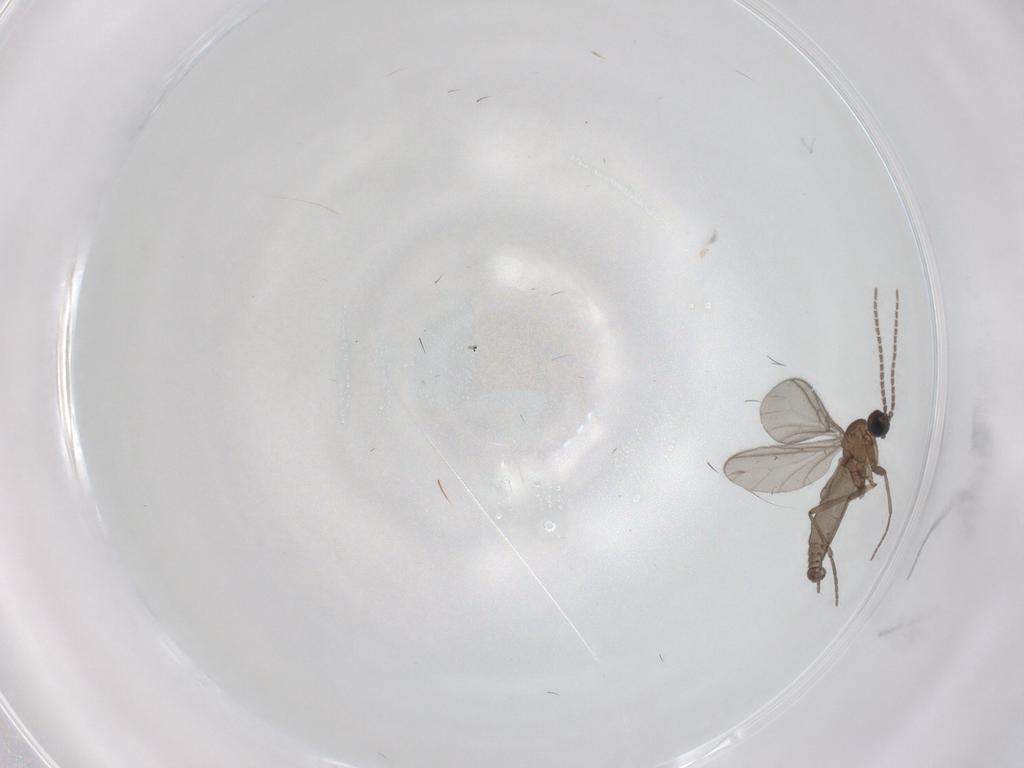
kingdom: Animalia
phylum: Arthropoda
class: Insecta
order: Diptera
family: Sciaridae
